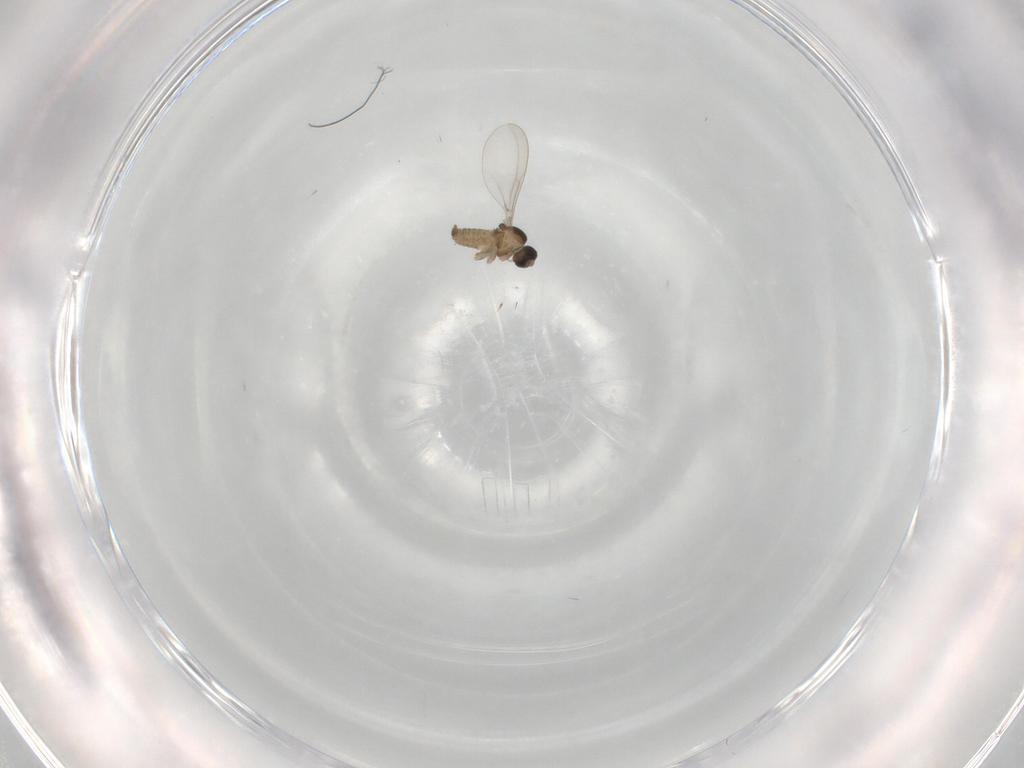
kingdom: Animalia
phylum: Arthropoda
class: Insecta
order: Diptera
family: Cecidomyiidae
